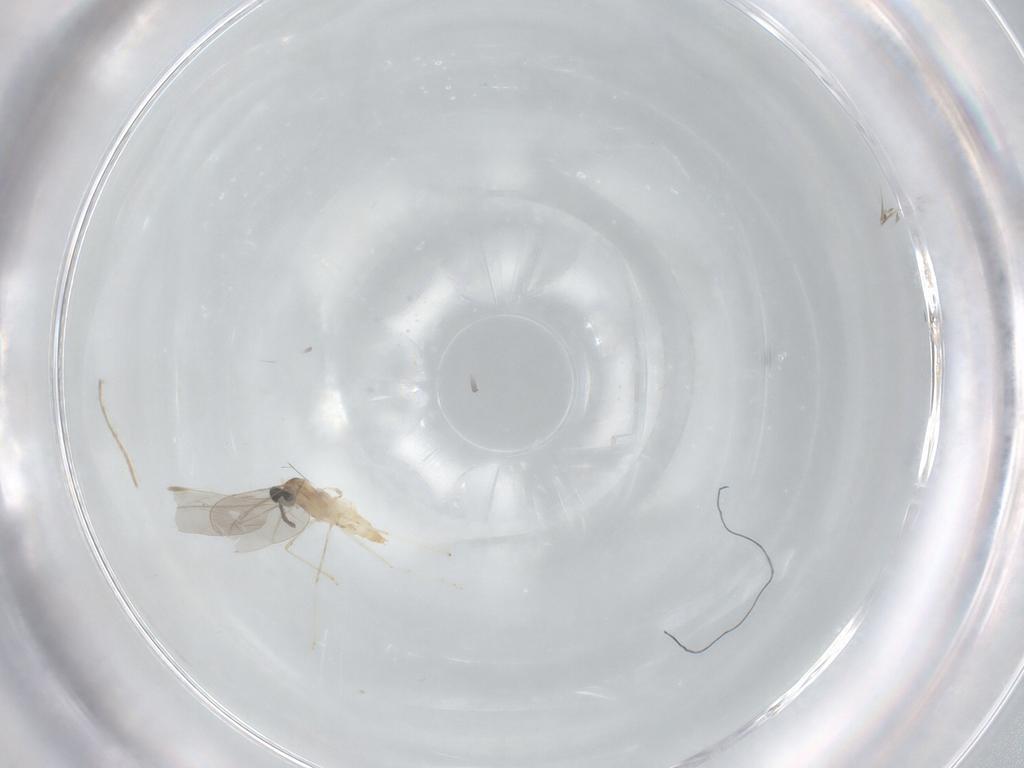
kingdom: Animalia
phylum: Arthropoda
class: Insecta
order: Diptera
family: Cecidomyiidae
